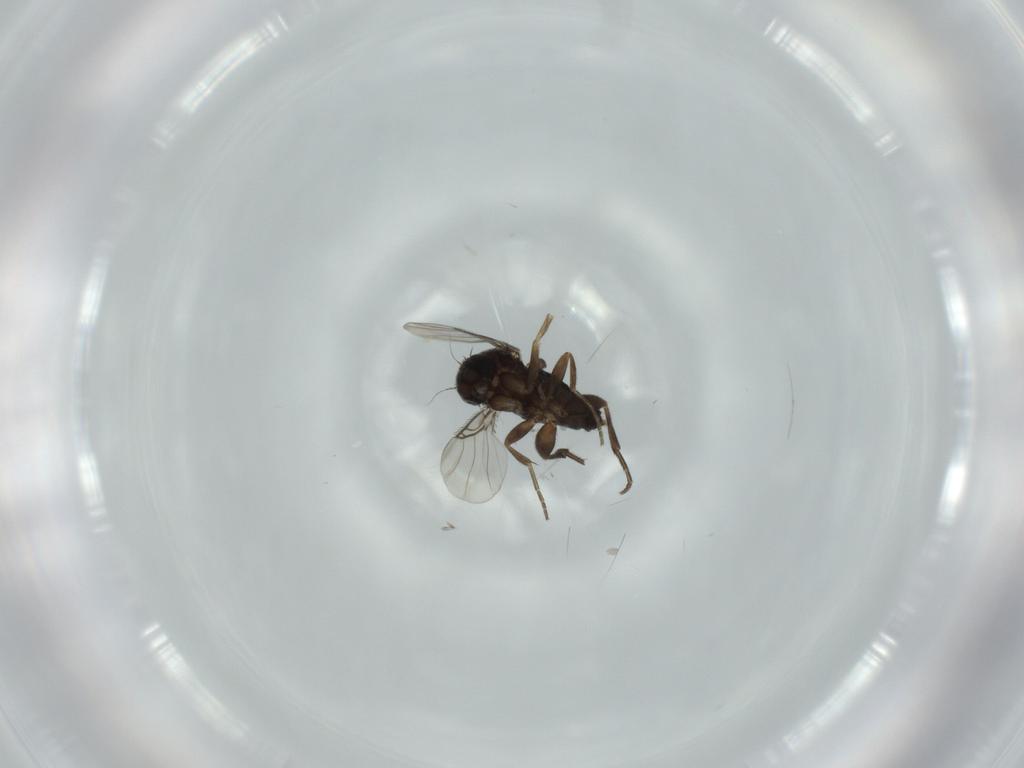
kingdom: Animalia
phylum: Arthropoda
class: Insecta
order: Diptera
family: Phoridae
